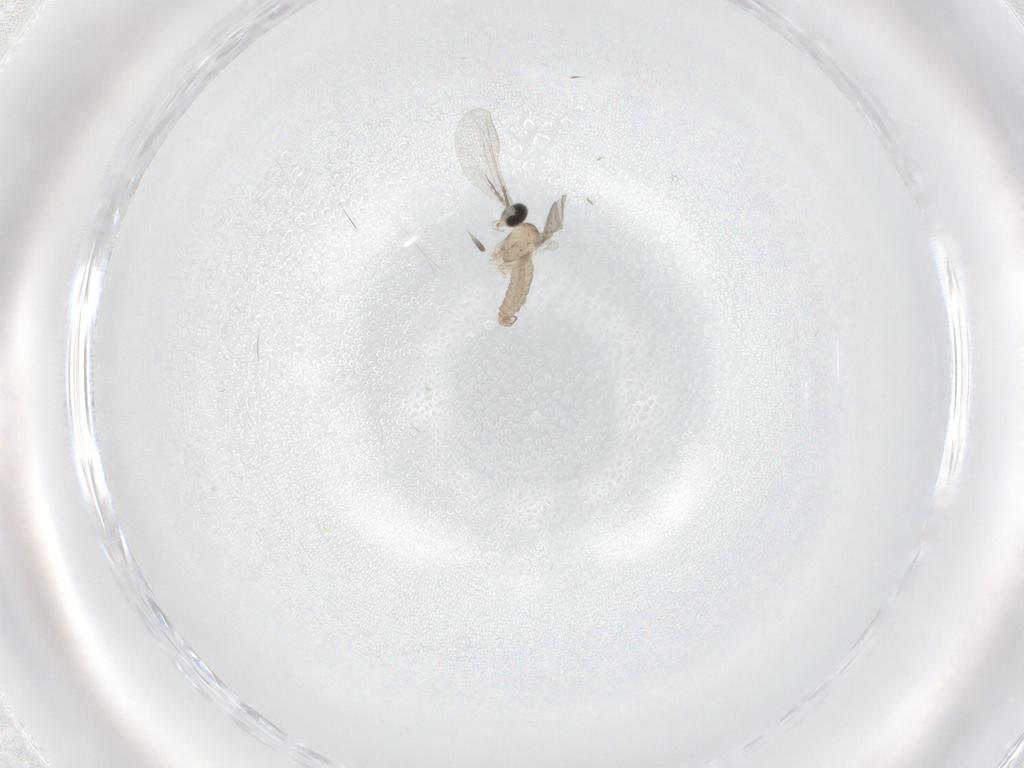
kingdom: Animalia
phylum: Arthropoda
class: Insecta
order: Diptera
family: Cecidomyiidae
